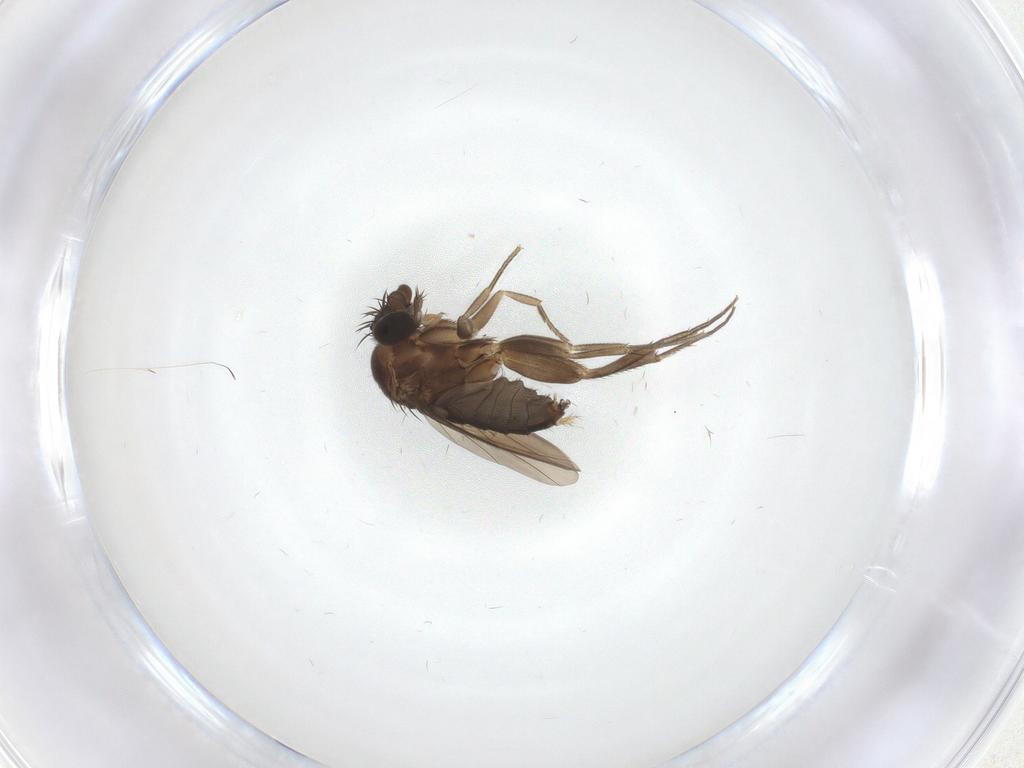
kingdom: Animalia
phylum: Arthropoda
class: Insecta
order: Diptera
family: Phoridae
